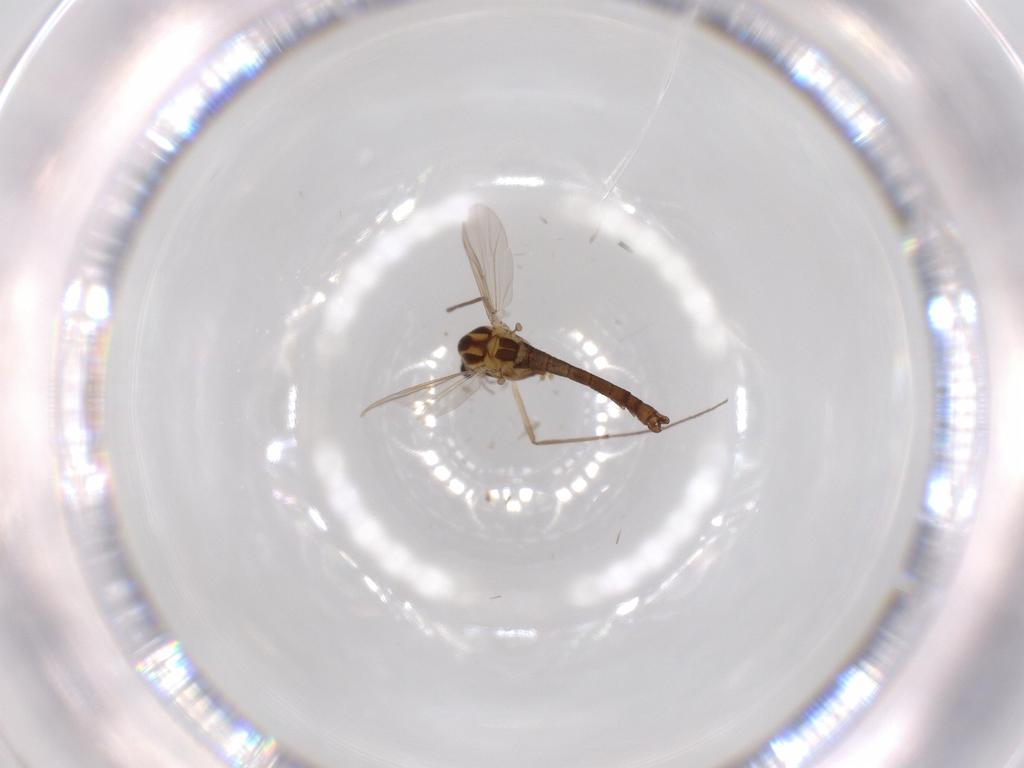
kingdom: Animalia
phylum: Arthropoda
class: Insecta
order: Diptera
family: Chironomidae
